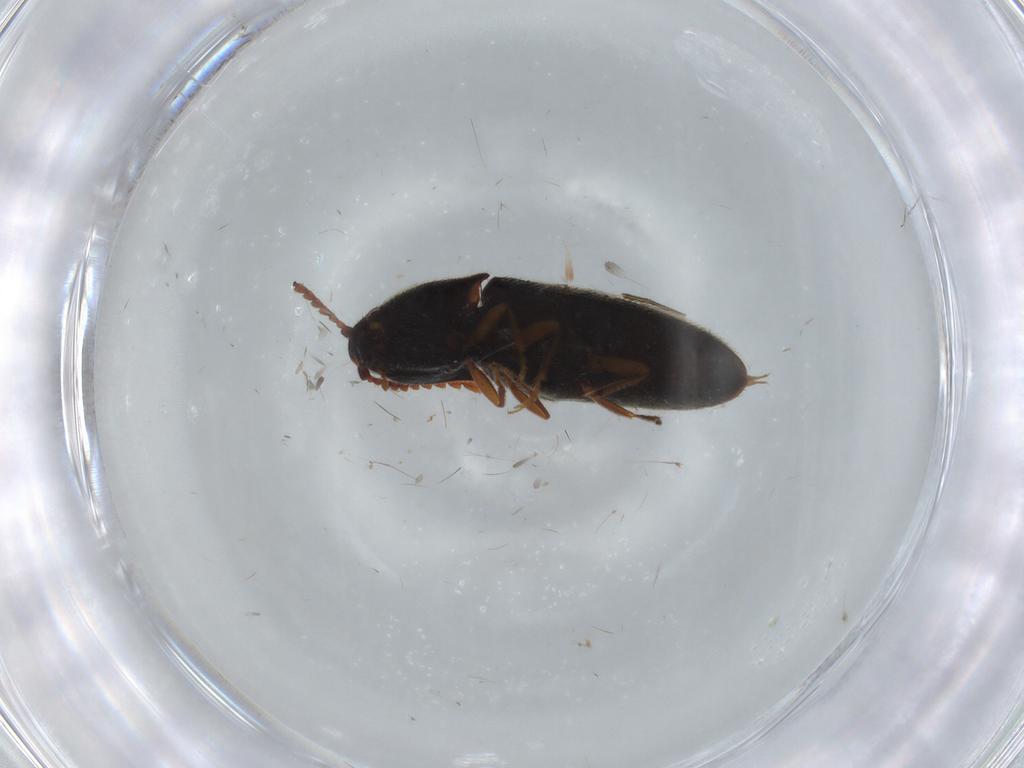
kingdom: Animalia
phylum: Arthropoda
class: Insecta
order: Coleoptera
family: Elateridae
